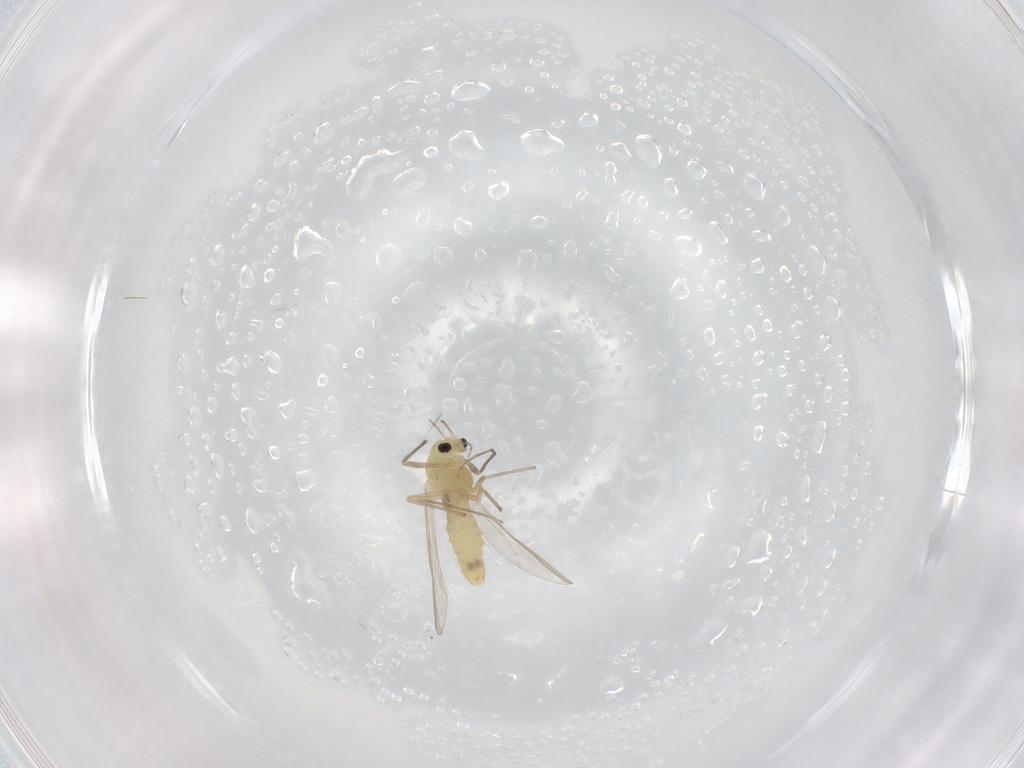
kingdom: Animalia
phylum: Arthropoda
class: Insecta
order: Diptera
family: Chironomidae
